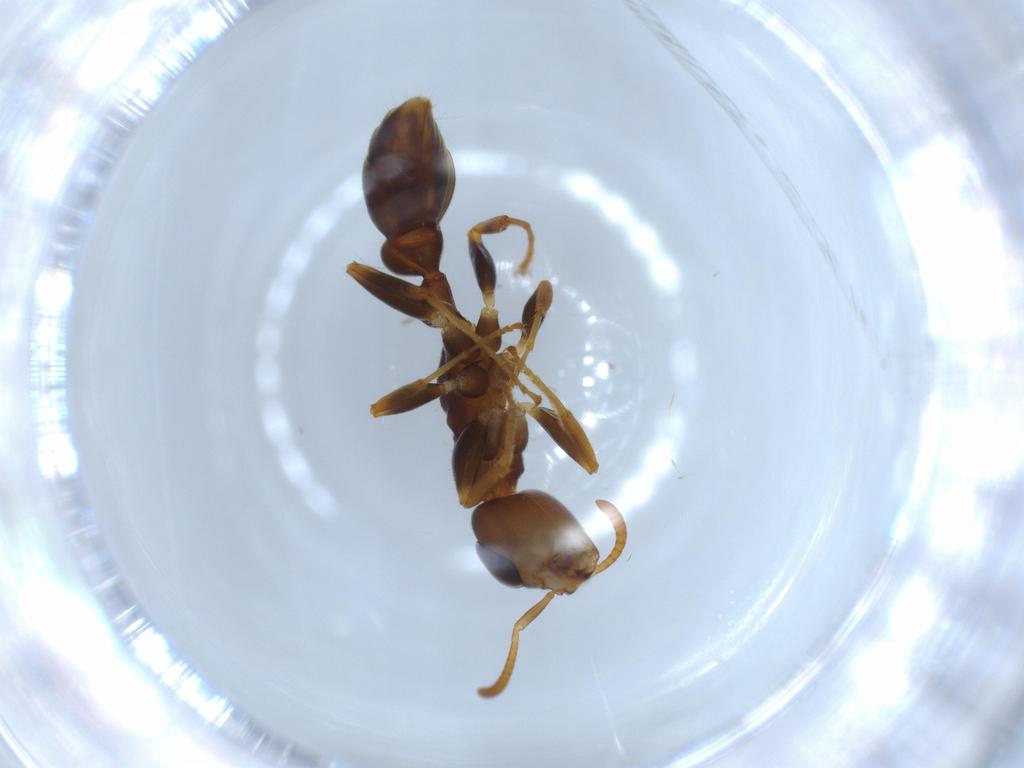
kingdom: Animalia
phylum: Arthropoda
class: Insecta
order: Hymenoptera
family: Formicidae
